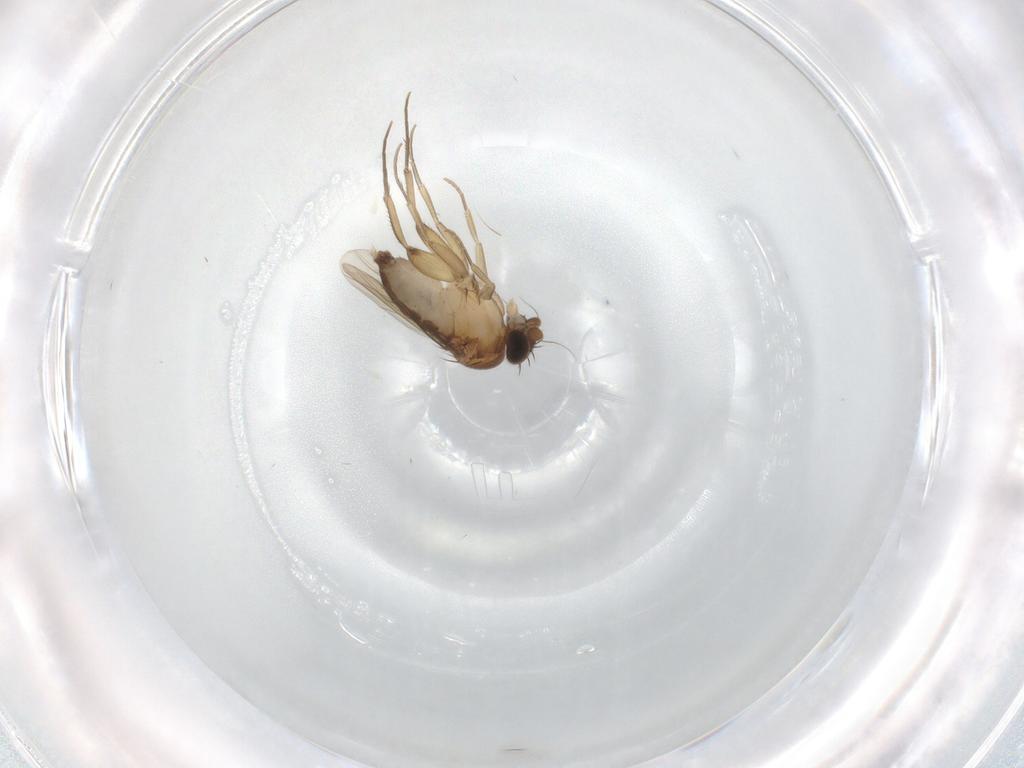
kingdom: Animalia
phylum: Arthropoda
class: Insecta
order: Diptera
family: Phoridae
